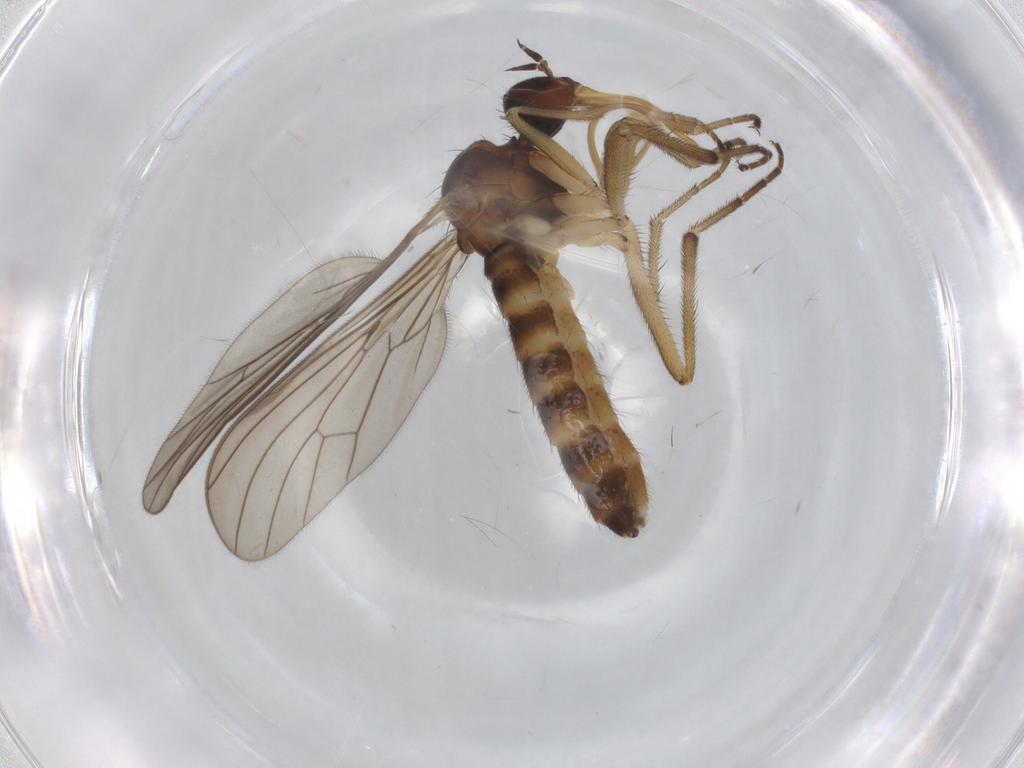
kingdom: Animalia
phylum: Arthropoda
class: Insecta
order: Diptera
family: Empididae
